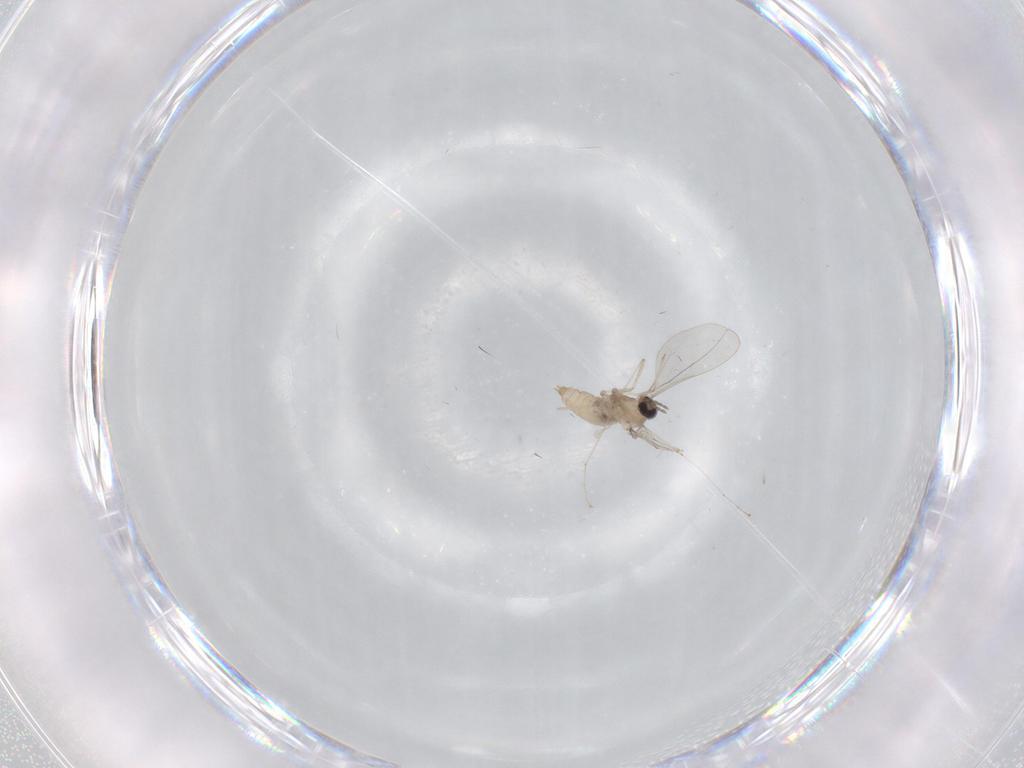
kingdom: Animalia
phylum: Arthropoda
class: Insecta
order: Diptera
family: Cecidomyiidae
